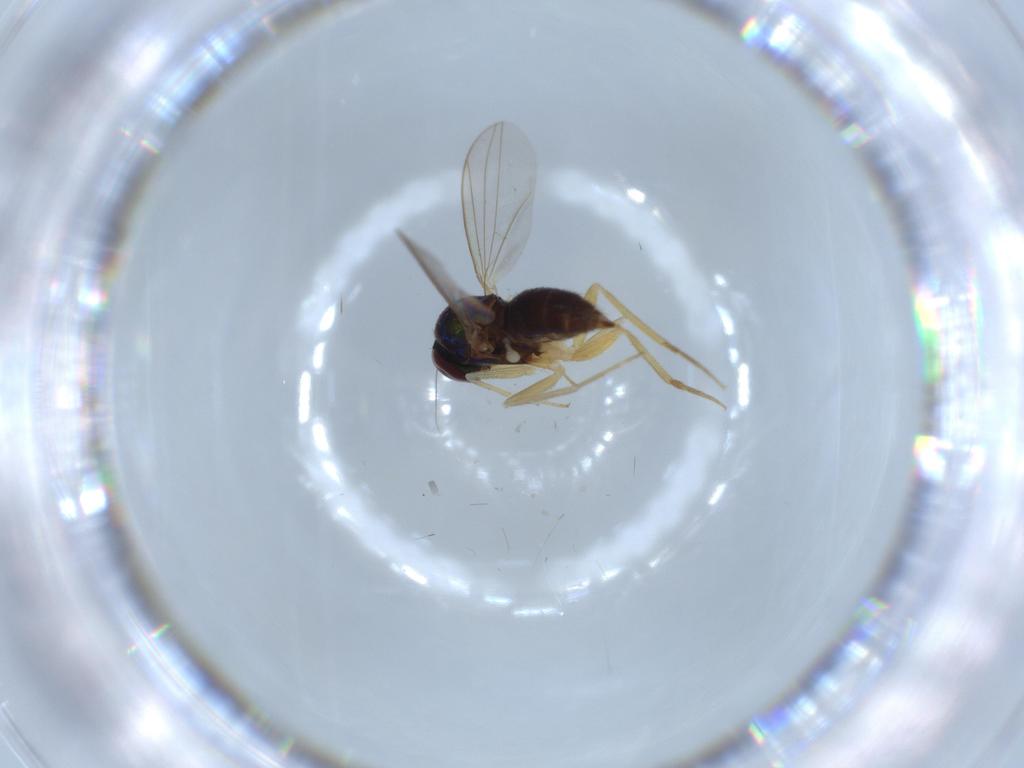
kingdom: Animalia
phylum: Arthropoda
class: Insecta
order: Diptera
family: Dolichopodidae
